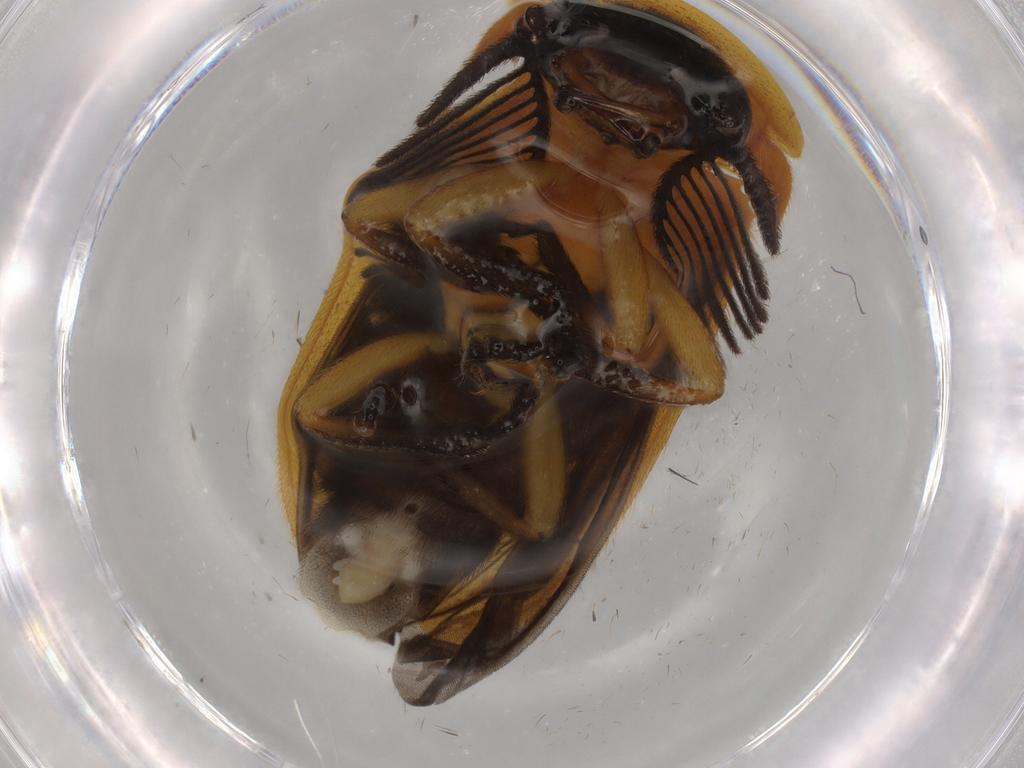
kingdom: Animalia
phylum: Arthropoda
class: Insecta
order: Coleoptera
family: Lampyridae
